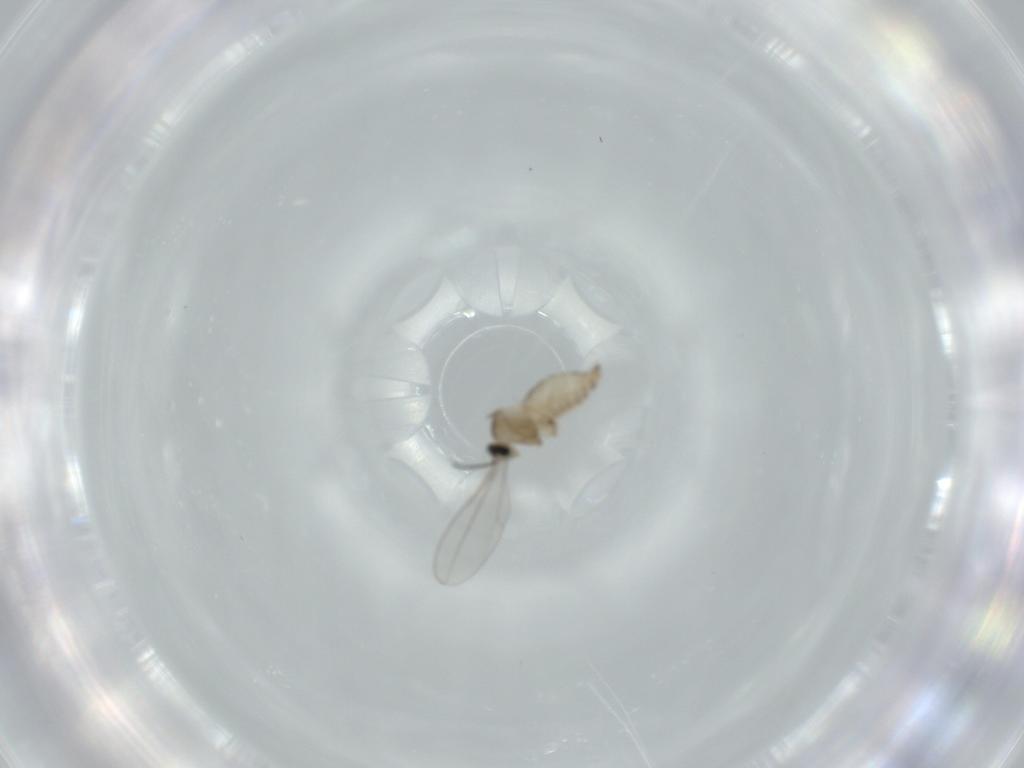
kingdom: Animalia
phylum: Arthropoda
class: Insecta
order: Diptera
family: Cecidomyiidae
